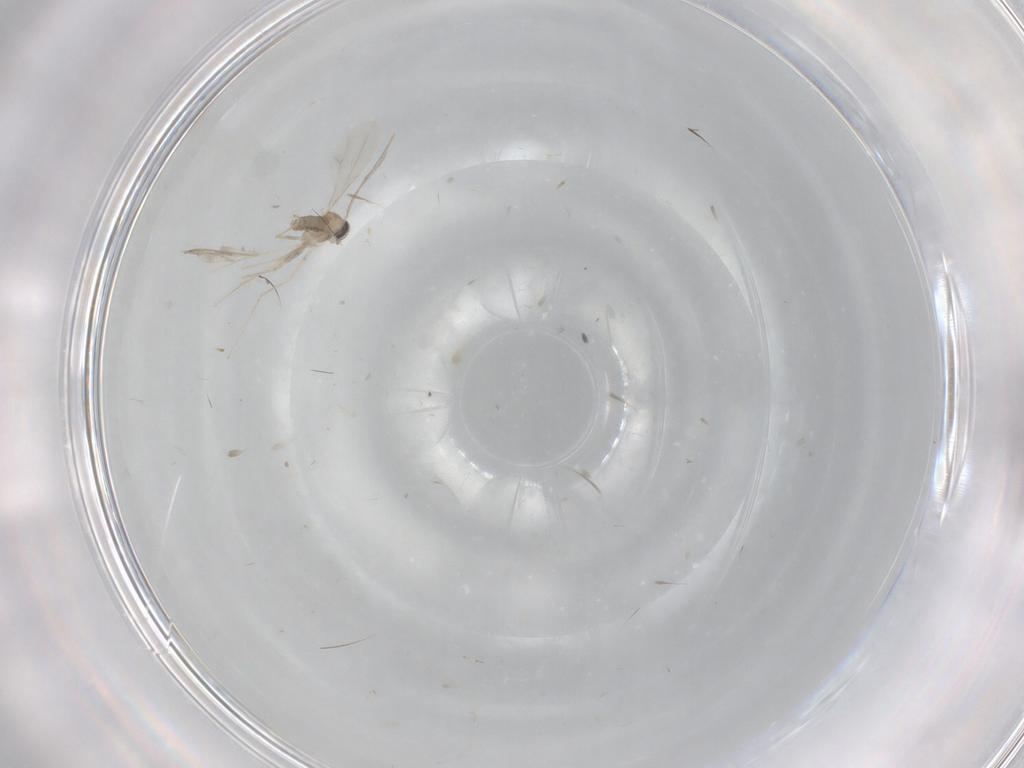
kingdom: Animalia
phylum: Arthropoda
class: Insecta
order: Diptera
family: Cecidomyiidae
